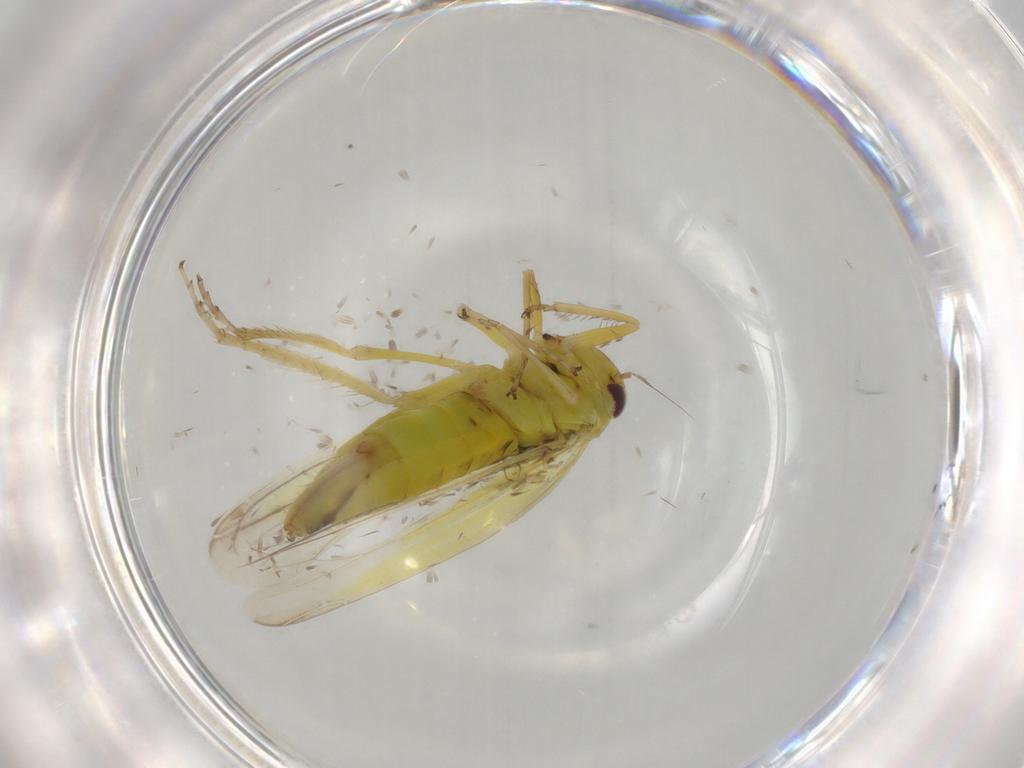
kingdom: Animalia
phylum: Arthropoda
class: Insecta
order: Hemiptera
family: Cicadellidae
